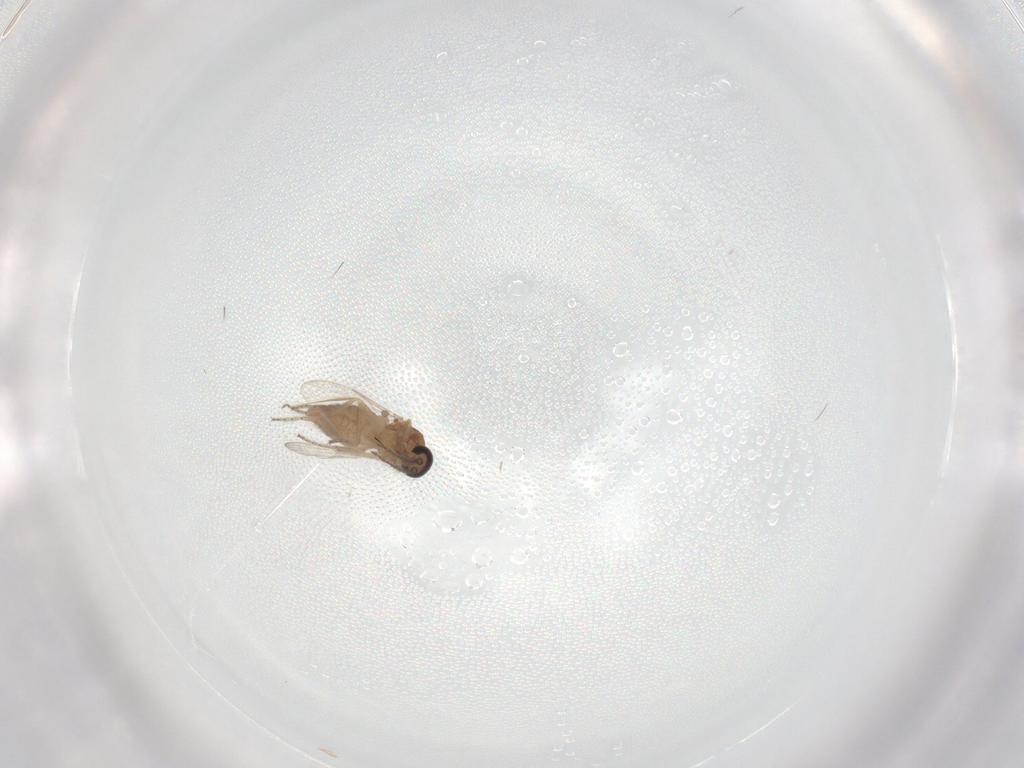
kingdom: Animalia
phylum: Arthropoda
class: Insecta
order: Diptera
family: Ceratopogonidae
